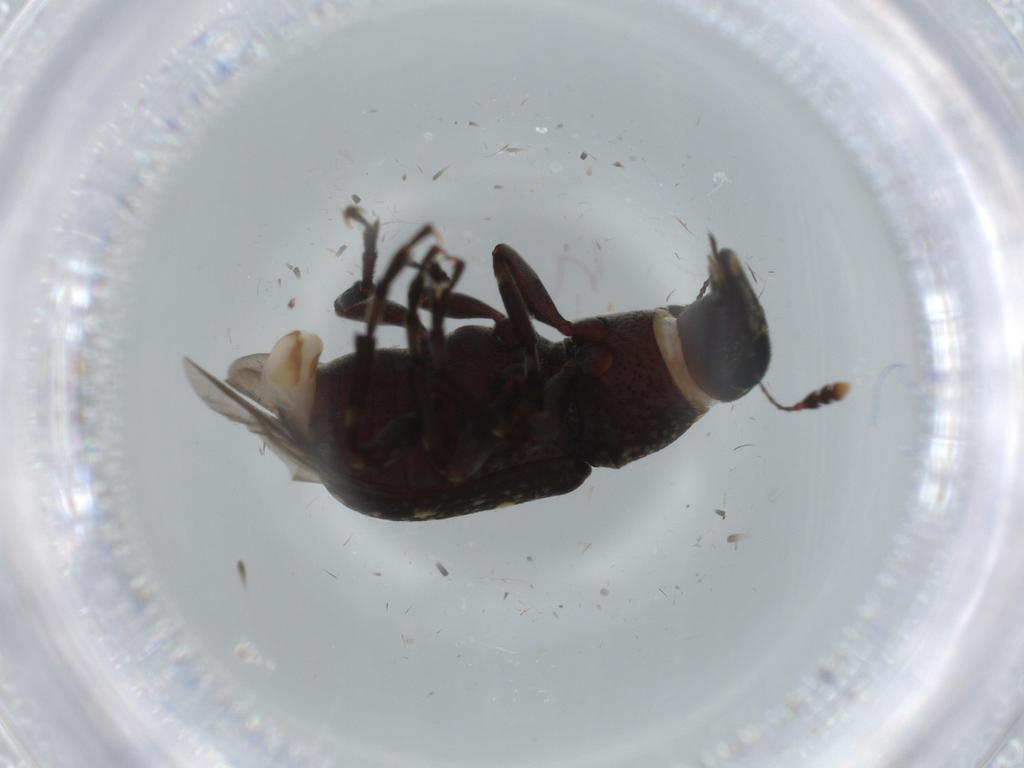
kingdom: Animalia
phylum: Arthropoda
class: Insecta
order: Coleoptera
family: Anthribidae
